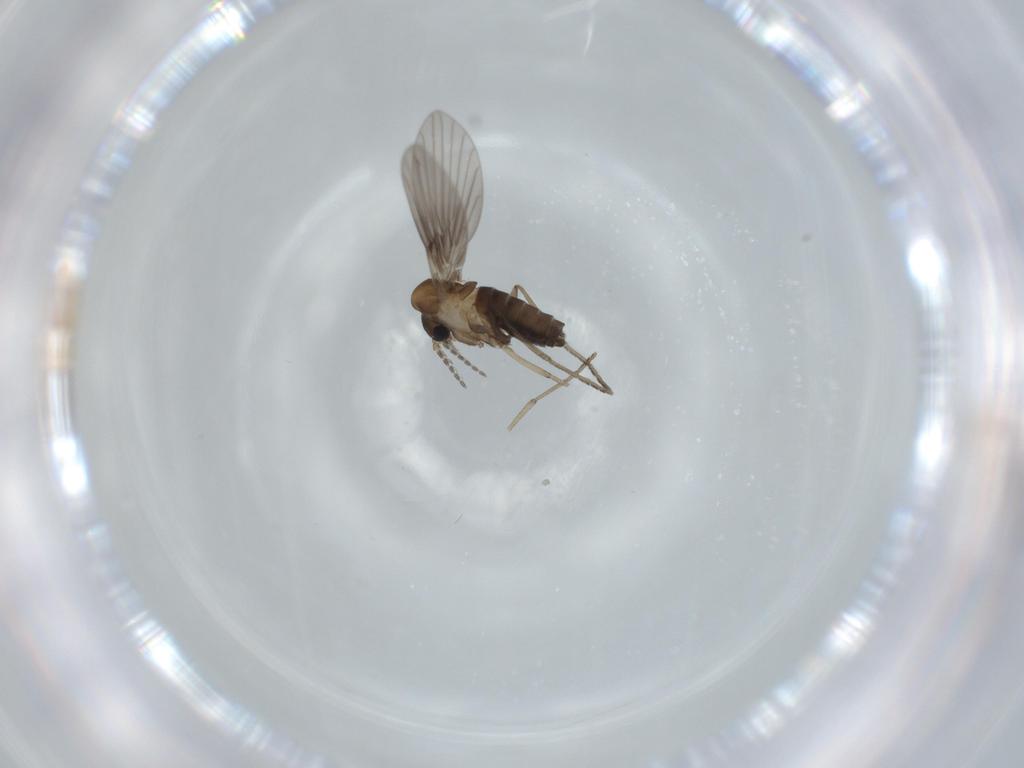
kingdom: Animalia
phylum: Arthropoda
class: Insecta
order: Diptera
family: Psychodidae
